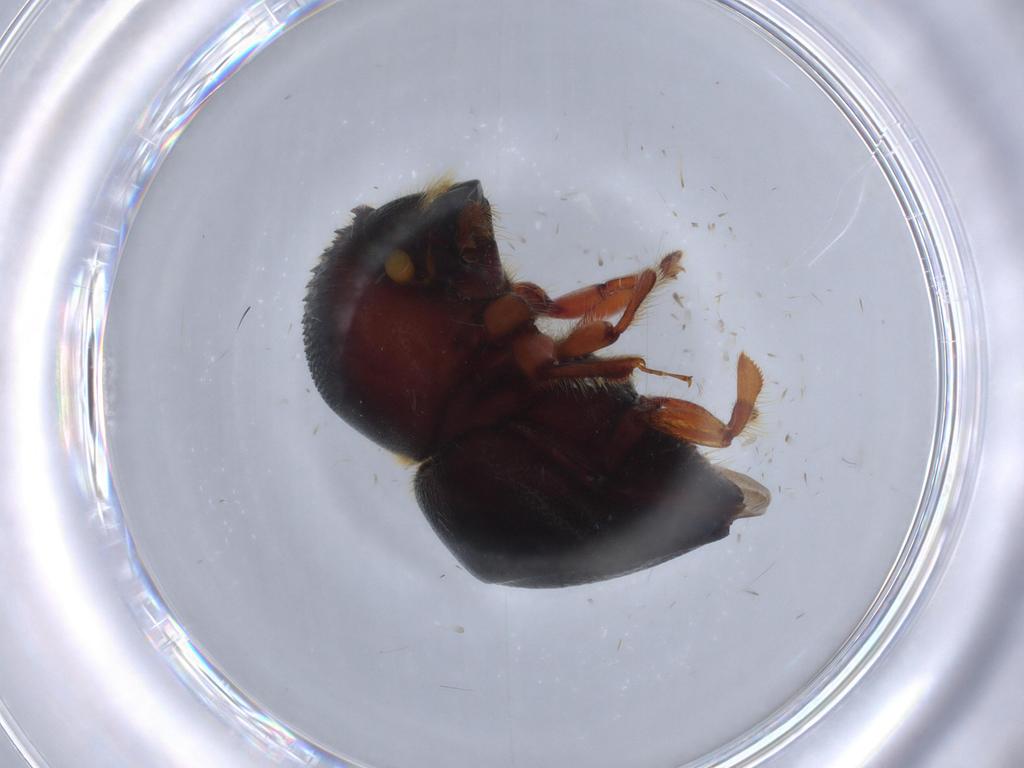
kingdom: Animalia
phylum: Arthropoda
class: Insecta
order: Coleoptera
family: Curculionidae
